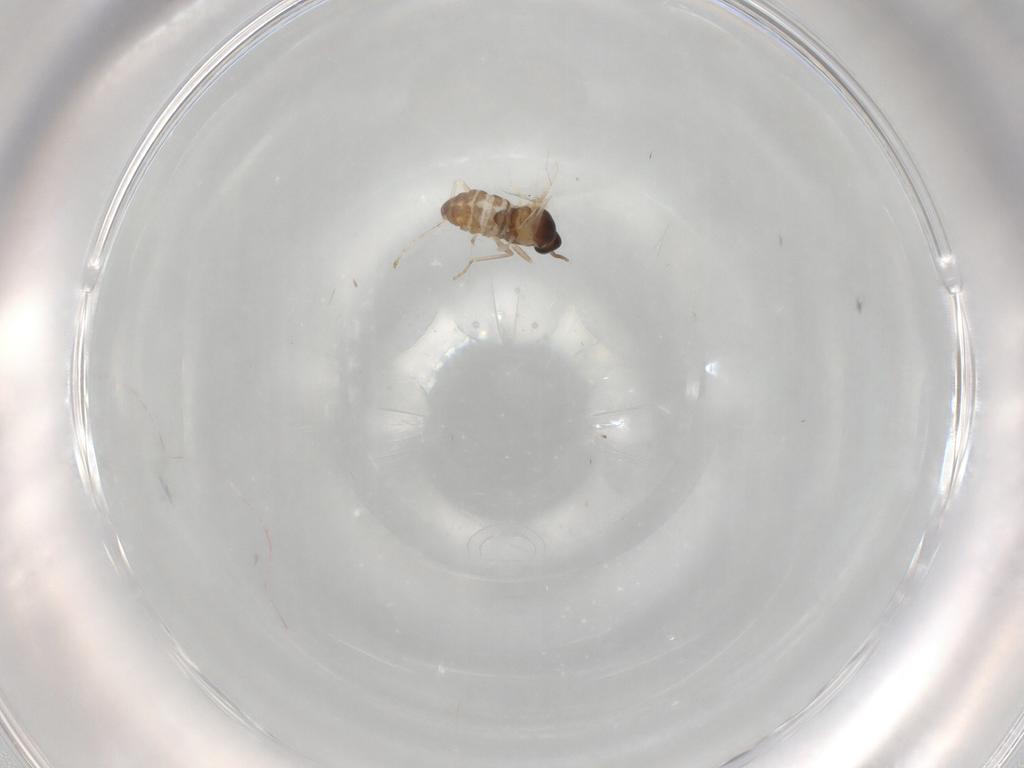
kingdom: Animalia
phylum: Arthropoda
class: Insecta
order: Diptera
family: Cecidomyiidae
